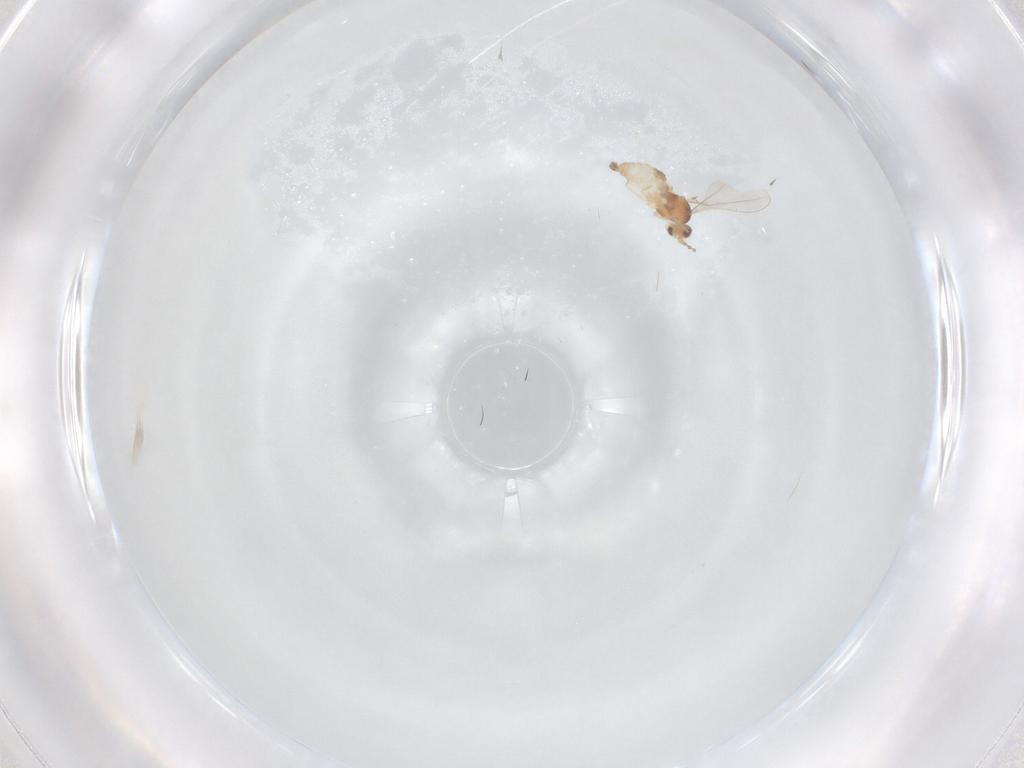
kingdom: Animalia
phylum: Arthropoda
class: Insecta
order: Diptera
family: Cecidomyiidae
